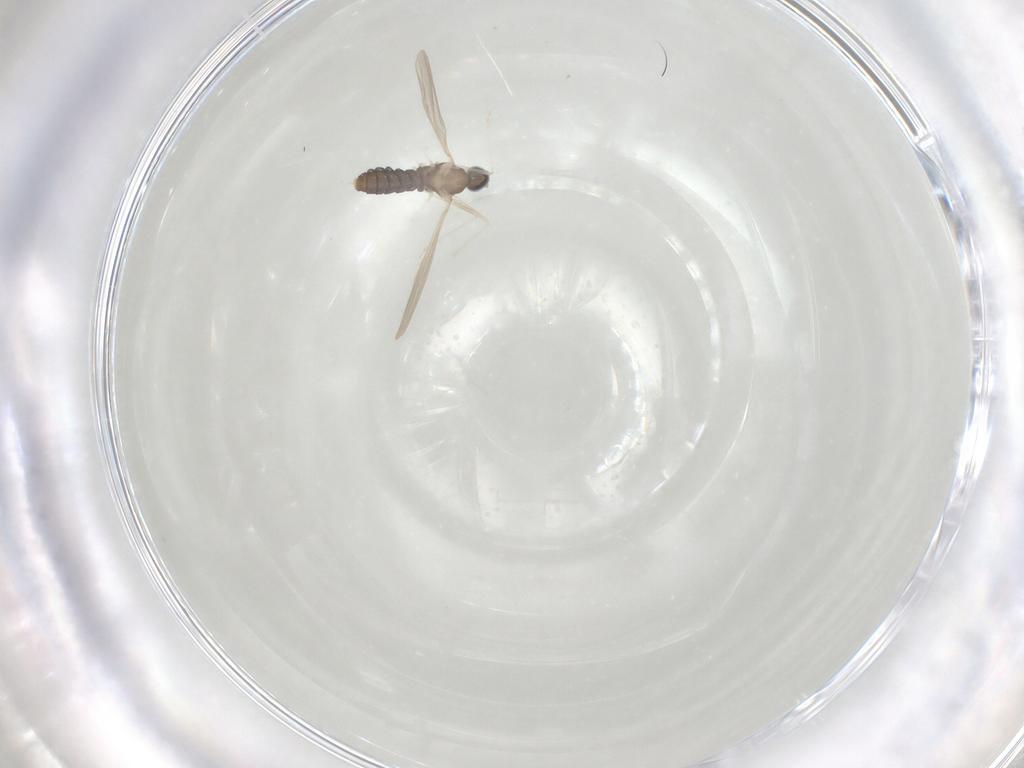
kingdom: Animalia
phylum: Arthropoda
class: Insecta
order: Diptera
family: Cecidomyiidae
